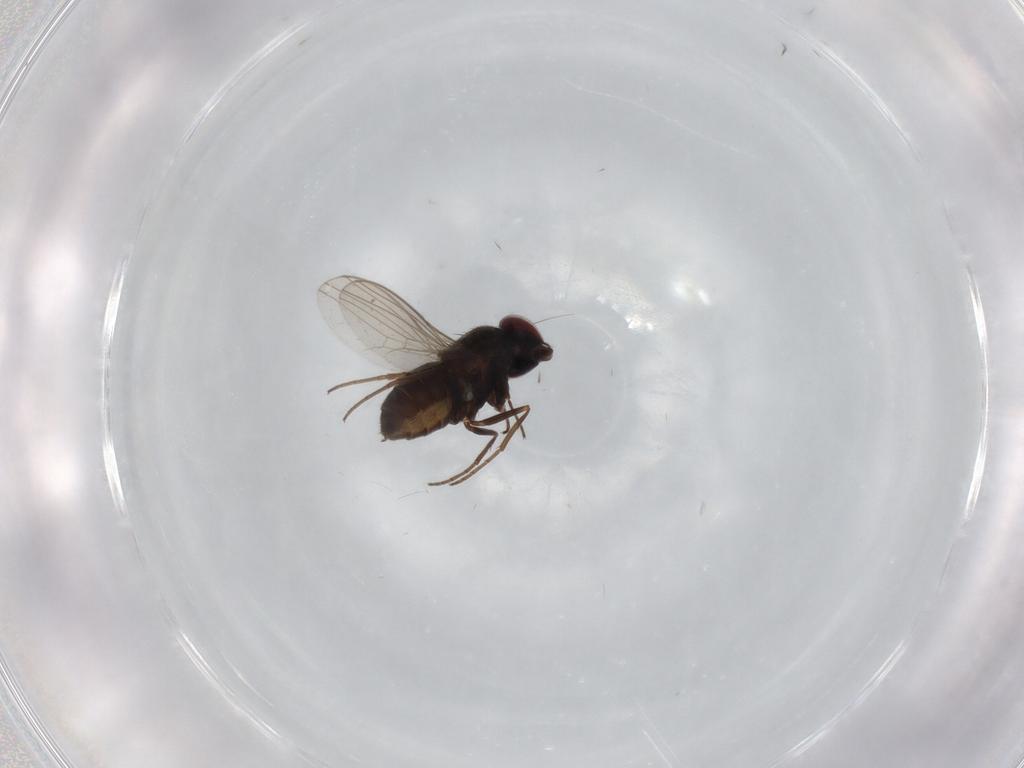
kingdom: Animalia
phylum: Arthropoda
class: Insecta
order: Diptera
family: Dolichopodidae
